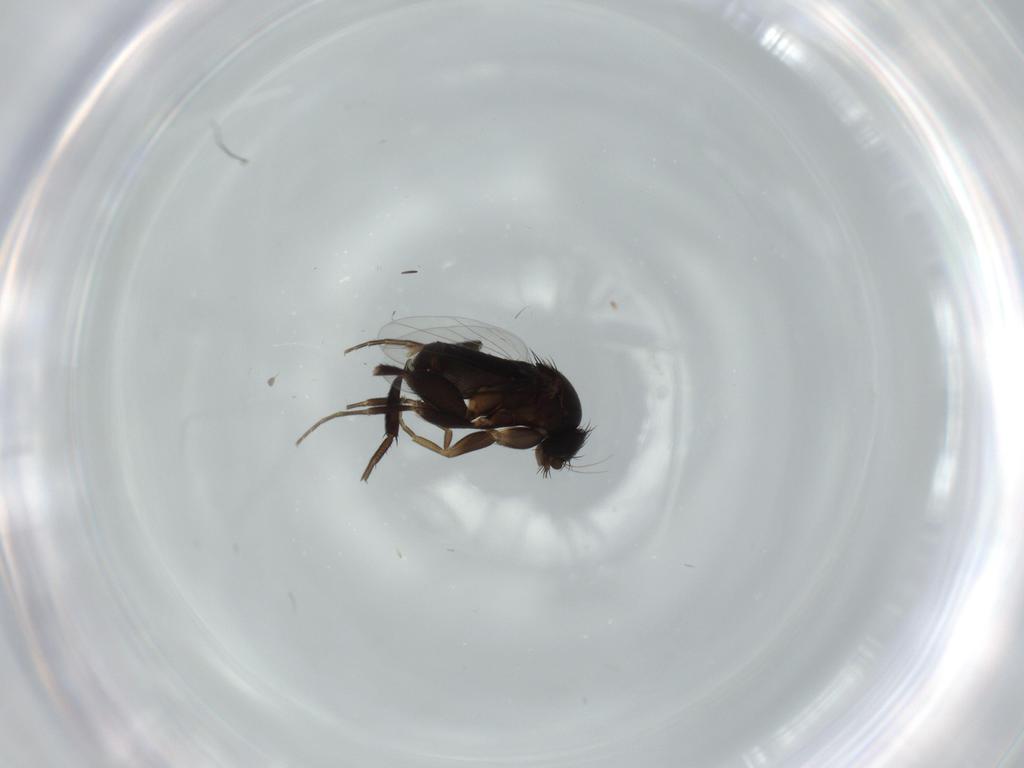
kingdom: Animalia
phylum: Arthropoda
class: Insecta
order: Diptera
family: Phoridae
